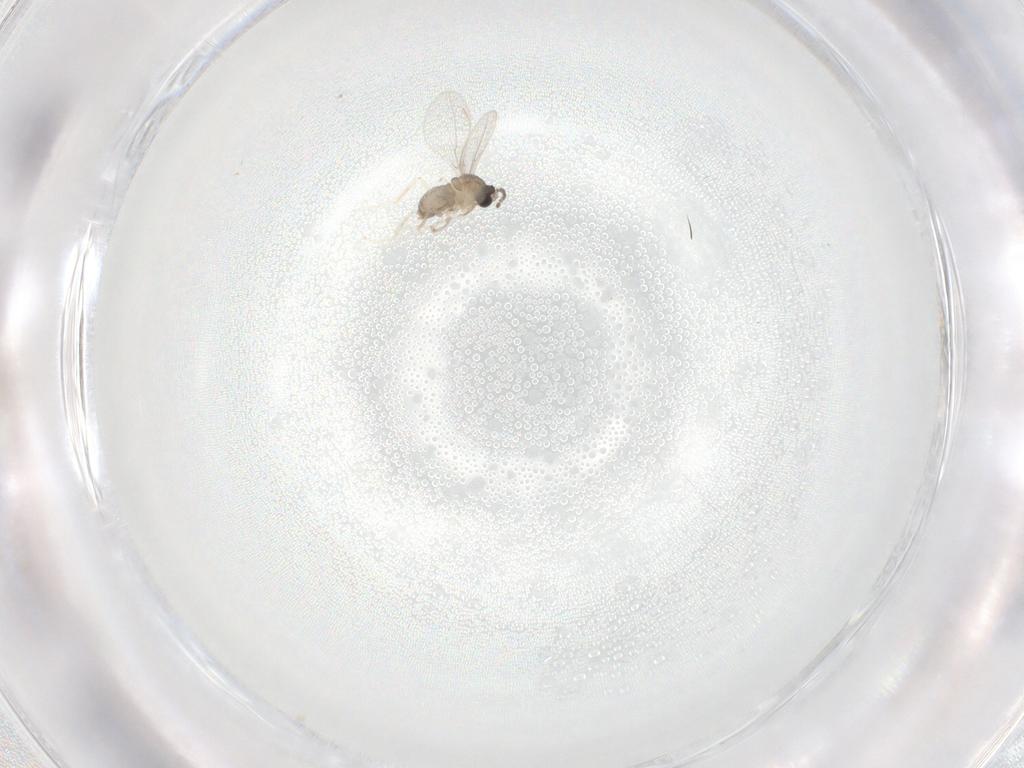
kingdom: Animalia
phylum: Arthropoda
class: Insecta
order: Diptera
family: Cecidomyiidae
